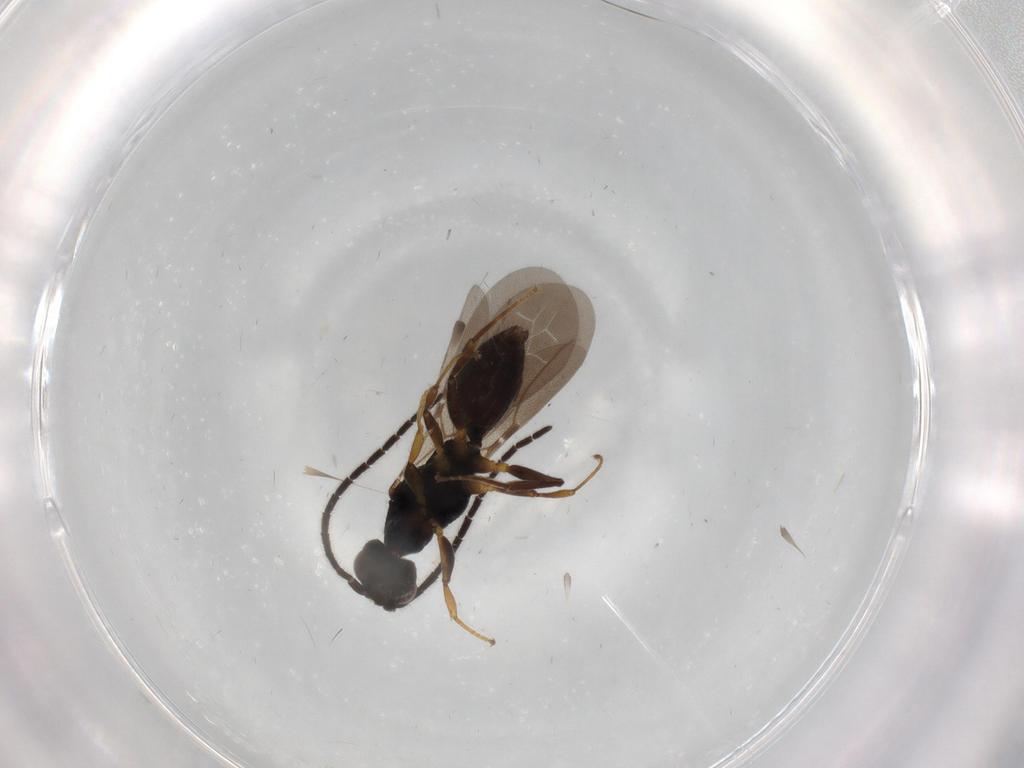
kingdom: Animalia
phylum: Arthropoda
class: Insecta
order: Hymenoptera
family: Bethylidae
